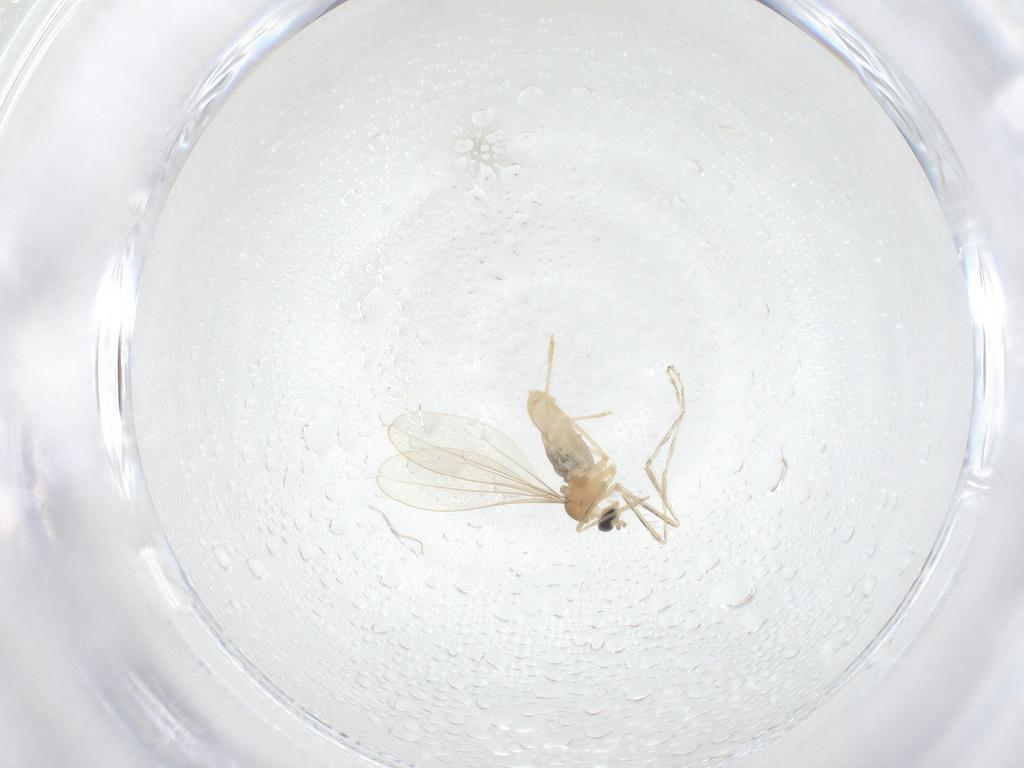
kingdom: Animalia
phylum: Arthropoda
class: Insecta
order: Diptera
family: Cecidomyiidae
